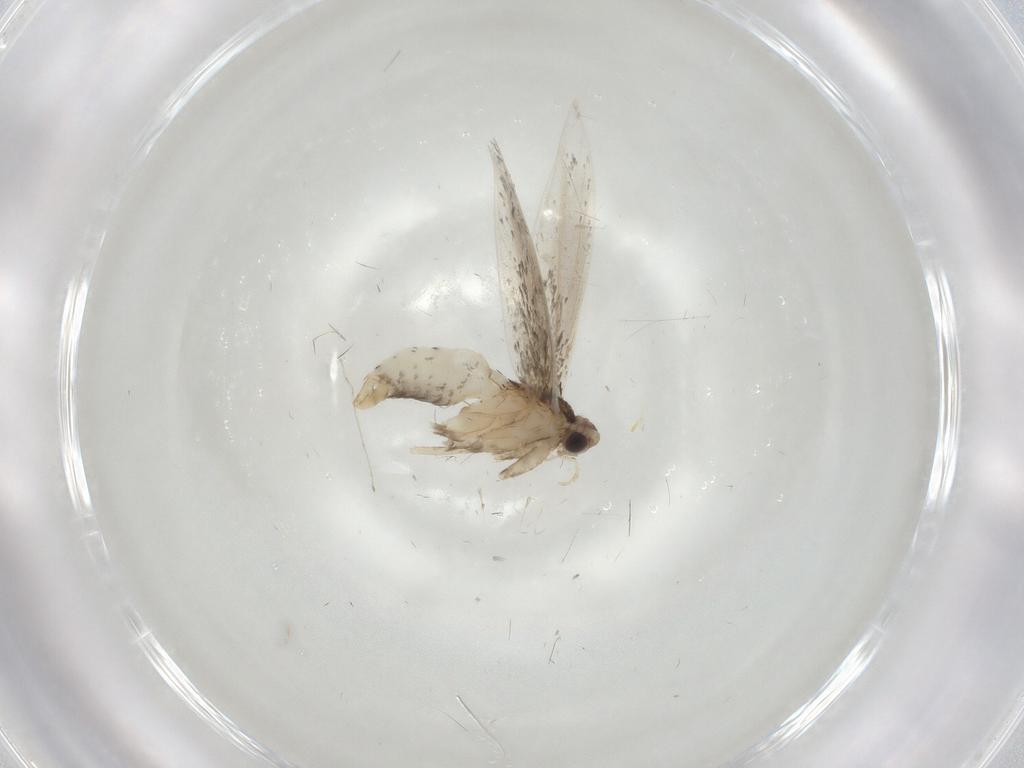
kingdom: Animalia
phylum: Arthropoda
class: Insecta
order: Lepidoptera
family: Tineidae
